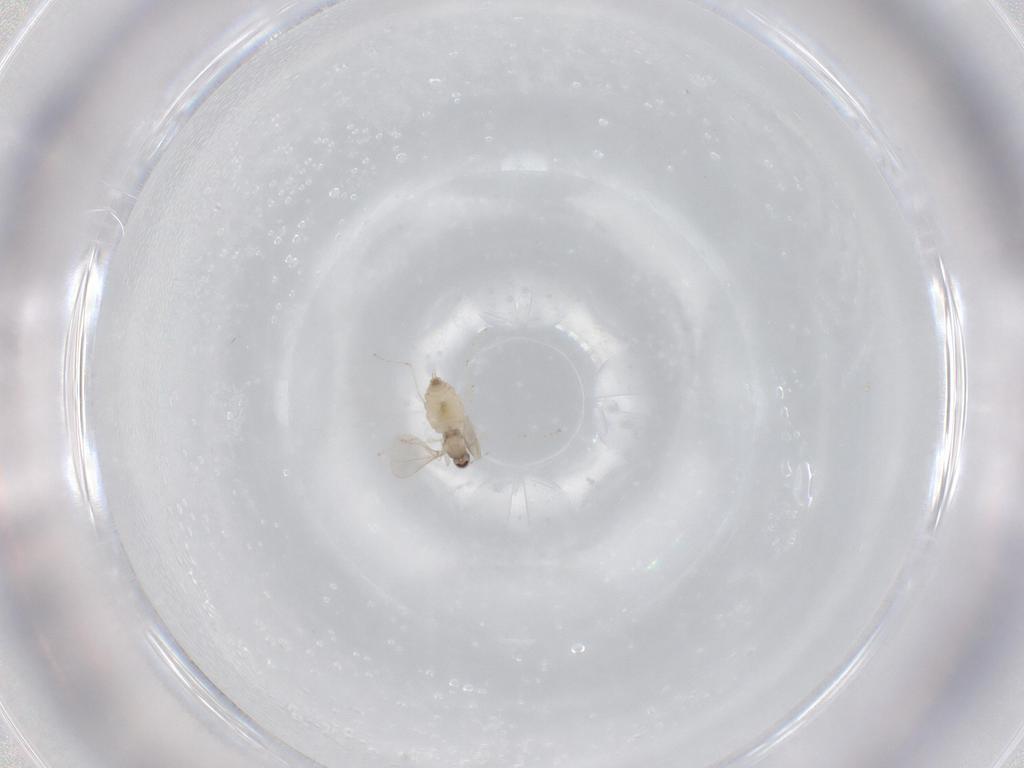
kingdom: Animalia
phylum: Arthropoda
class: Insecta
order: Diptera
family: Cecidomyiidae
